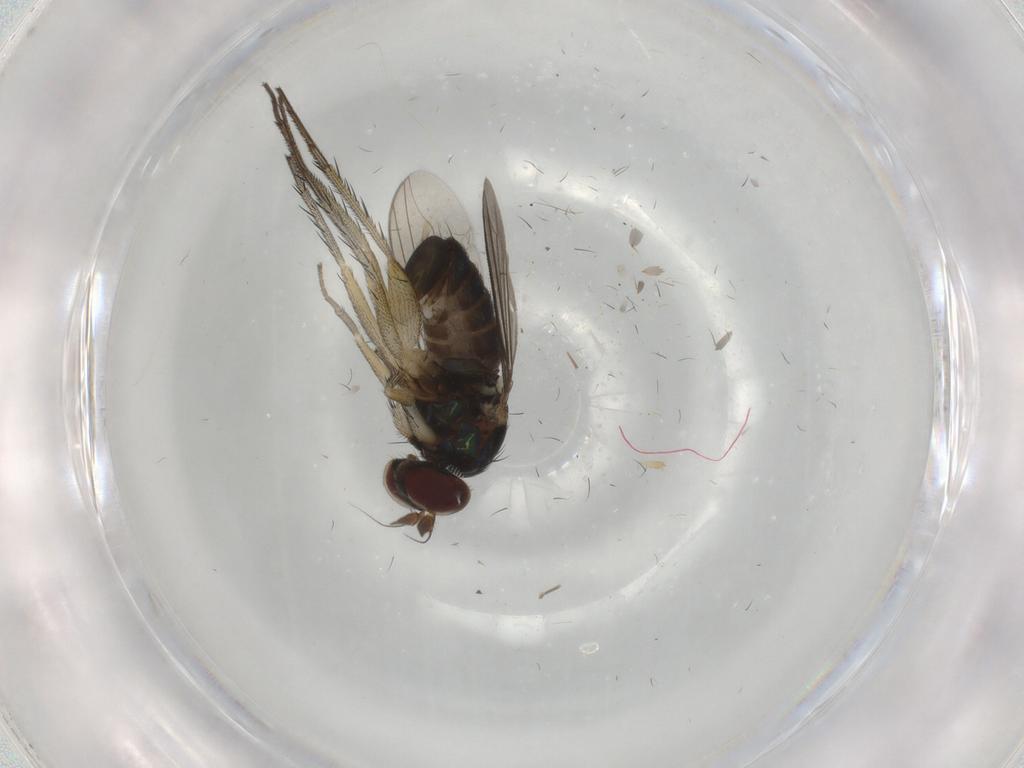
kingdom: Animalia
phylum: Arthropoda
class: Insecta
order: Diptera
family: Dolichopodidae
